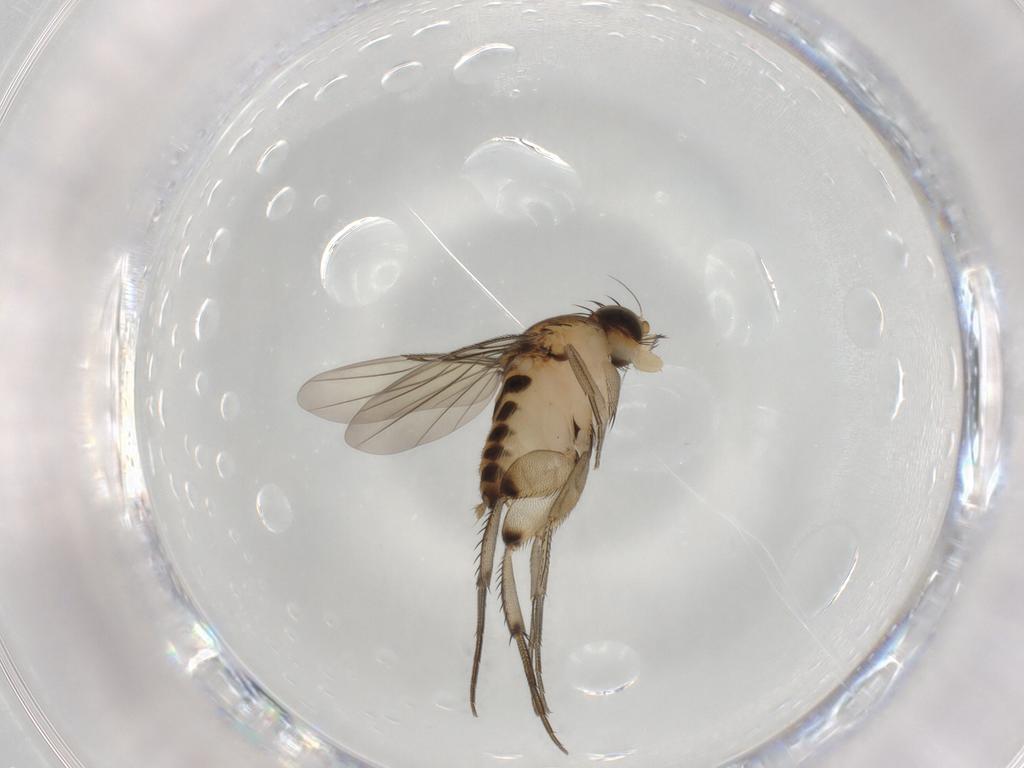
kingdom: Animalia
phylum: Arthropoda
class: Insecta
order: Diptera
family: Phoridae
